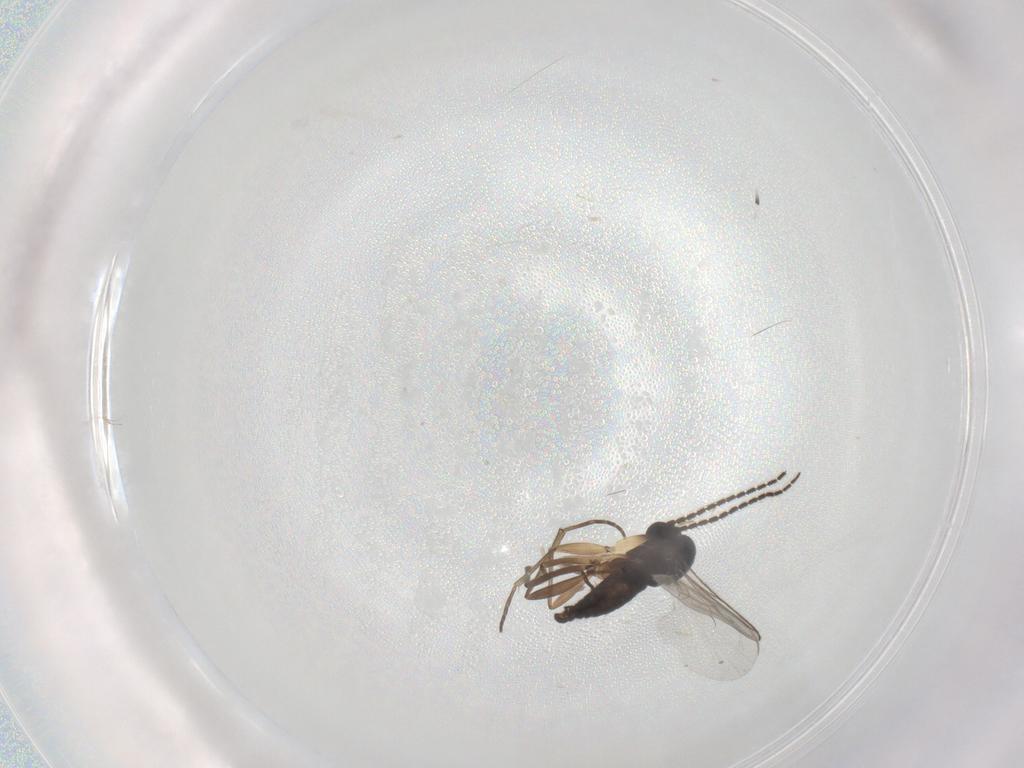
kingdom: Animalia
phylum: Arthropoda
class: Insecta
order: Diptera
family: Sciaridae
